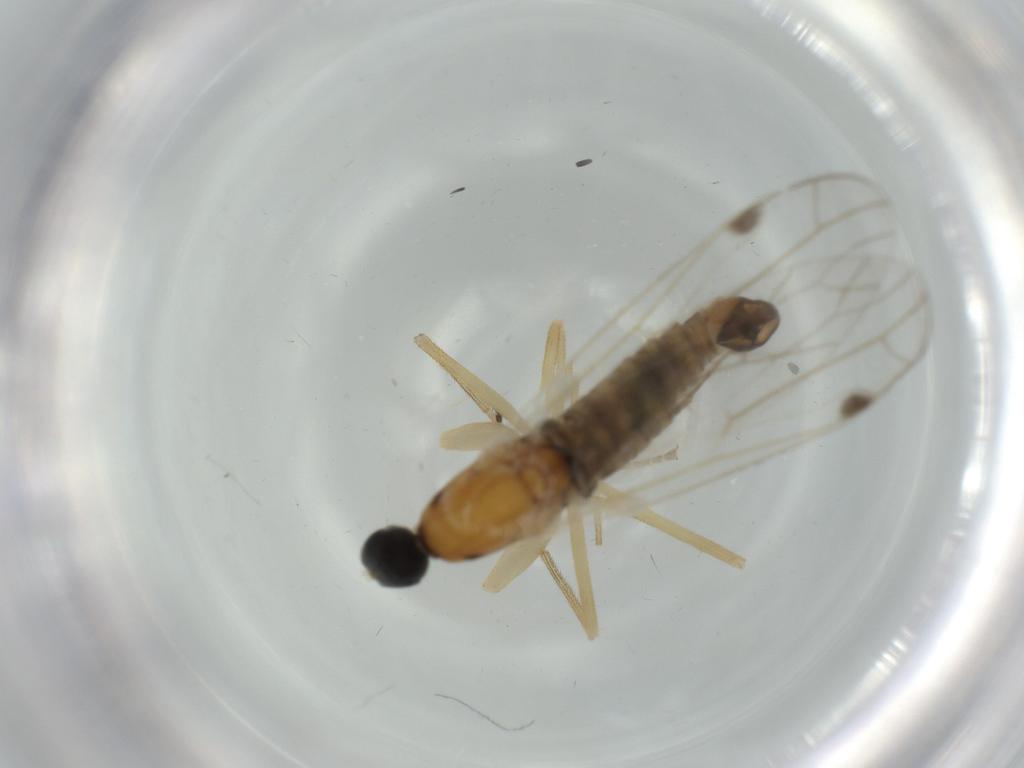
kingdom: Animalia
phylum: Arthropoda
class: Insecta
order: Diptera
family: Empididae
